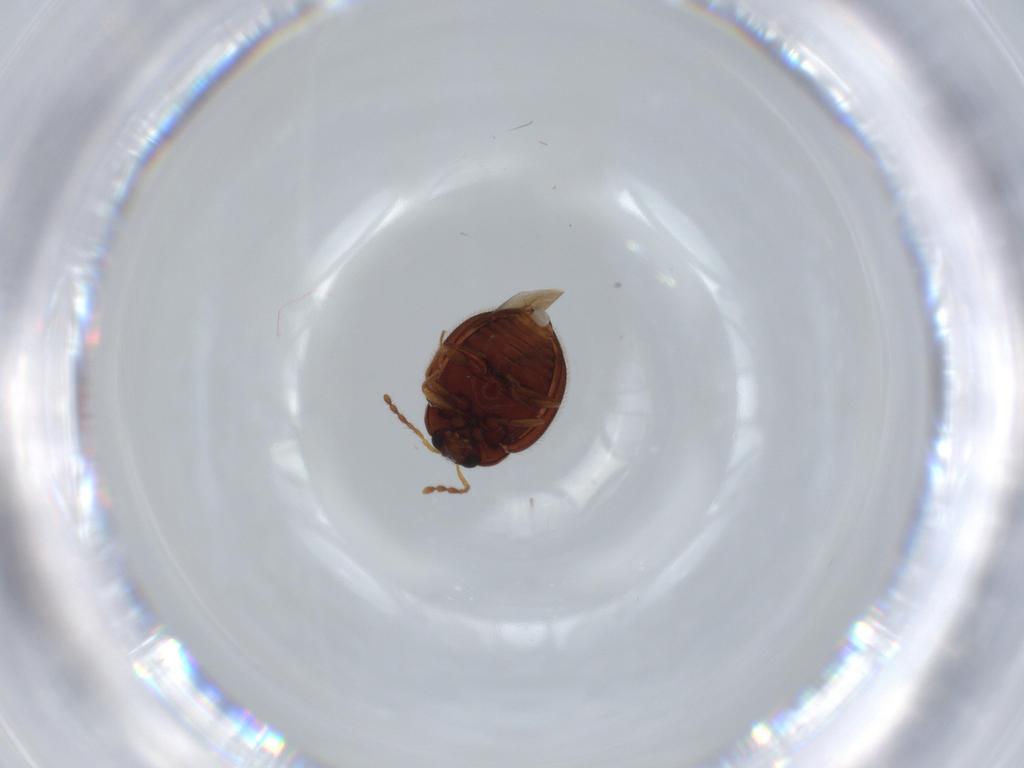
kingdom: Animalia
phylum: Arthropoda
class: Insecta
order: Coleoptera
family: Anamorphidae
